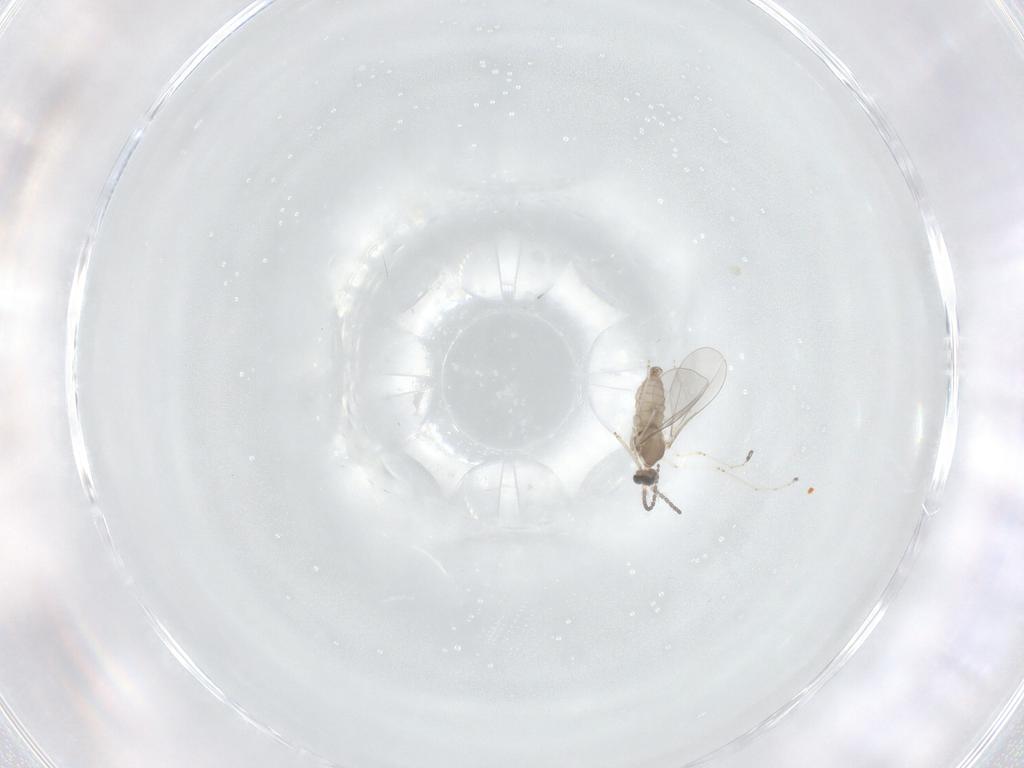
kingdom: Animalia
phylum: Arthropoda
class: Insecta
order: Diptera
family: Cecidomyiidae
